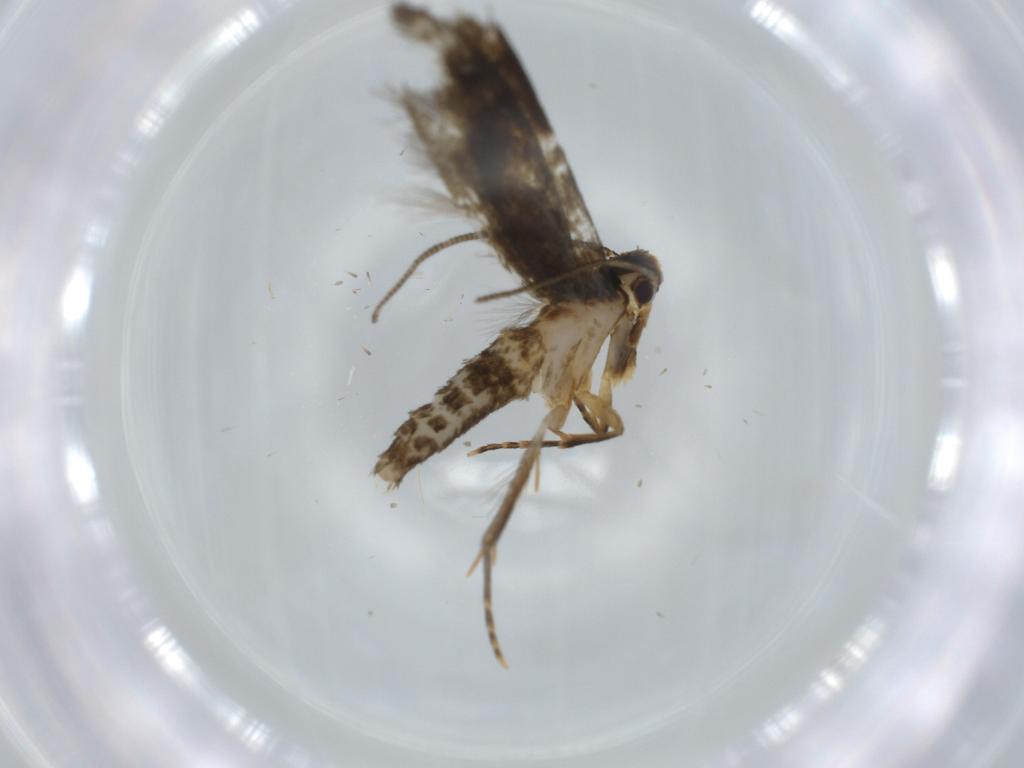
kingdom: Animalia
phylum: Arthropoda
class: Insecta
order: Lepidoptera
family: Tineidae
